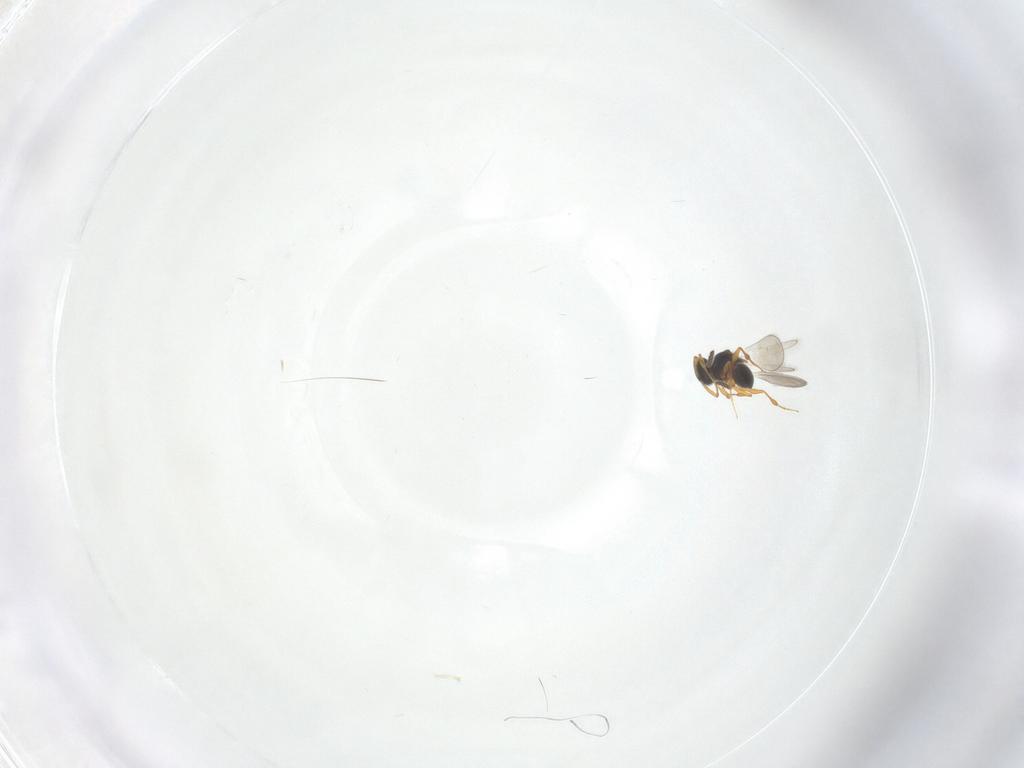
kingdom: Animalia
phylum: Arthropoda
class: Insecta
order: Hymenoptera
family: Platygastridae
